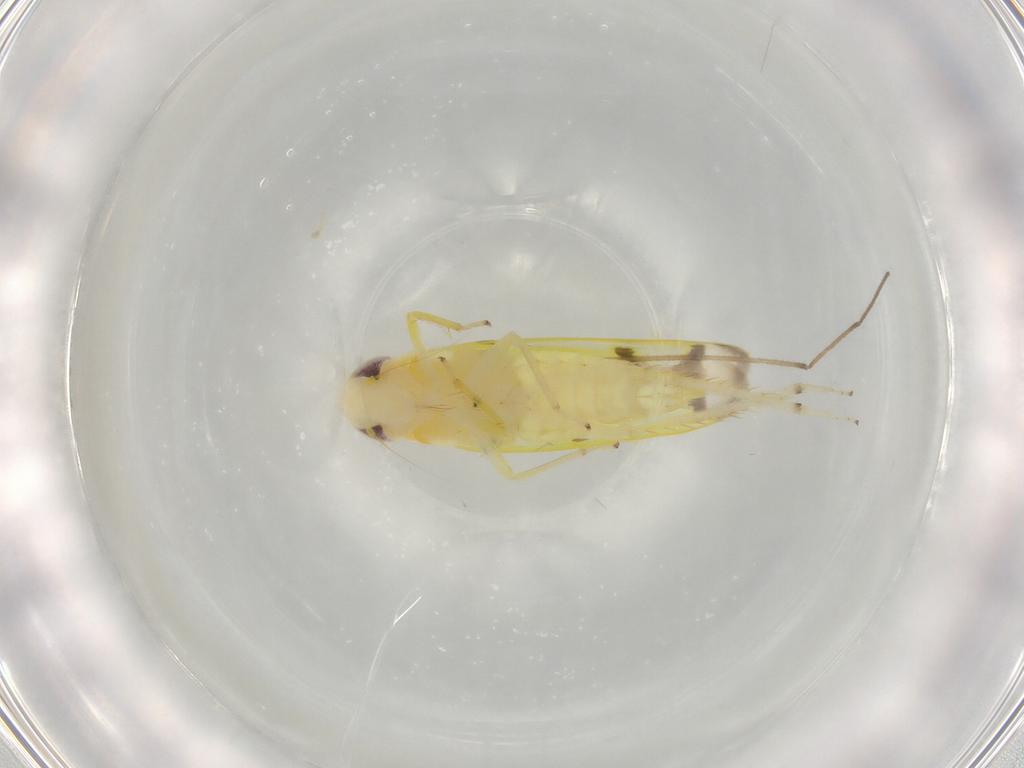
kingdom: Animalia
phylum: Arthropoda
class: Insecta
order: Hemiptera
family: Cicadellidae
